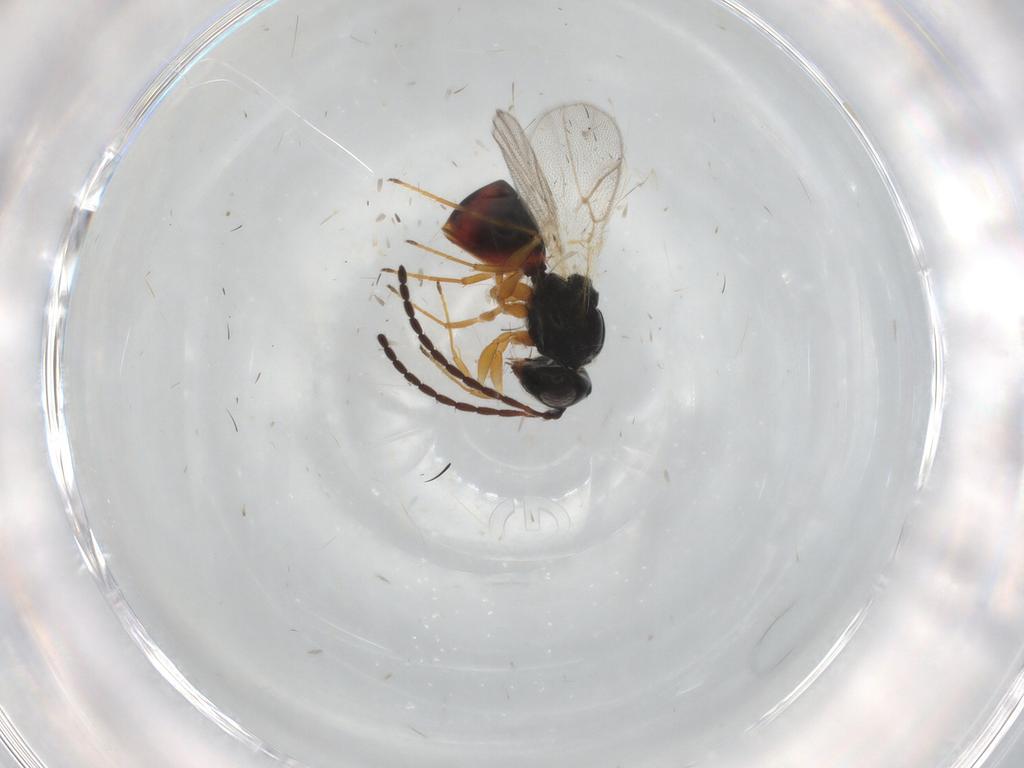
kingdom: Animalia
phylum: Arthropoda
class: Insecta
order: Hymenoptera
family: Figitidae
